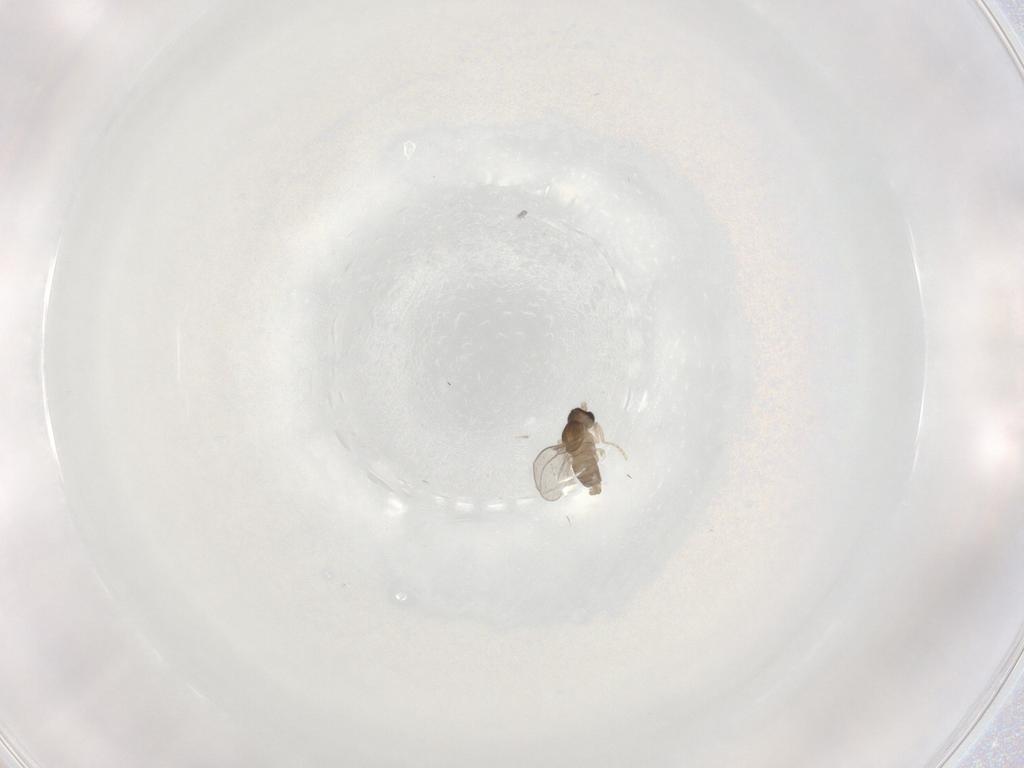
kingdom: Animalia
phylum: Arthropoda
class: Insecta
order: Diptera
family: Cecidomyiidae
